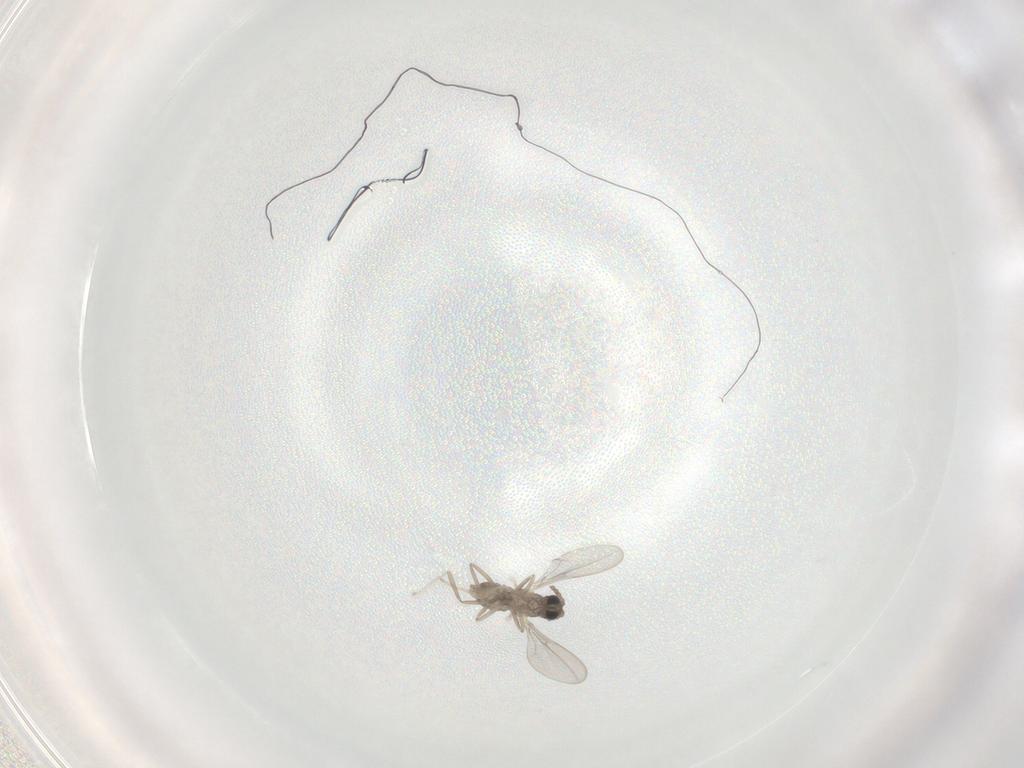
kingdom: Animalia
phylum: Arthropoda
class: Insecta
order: Diptera
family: Cecidomyiidae
